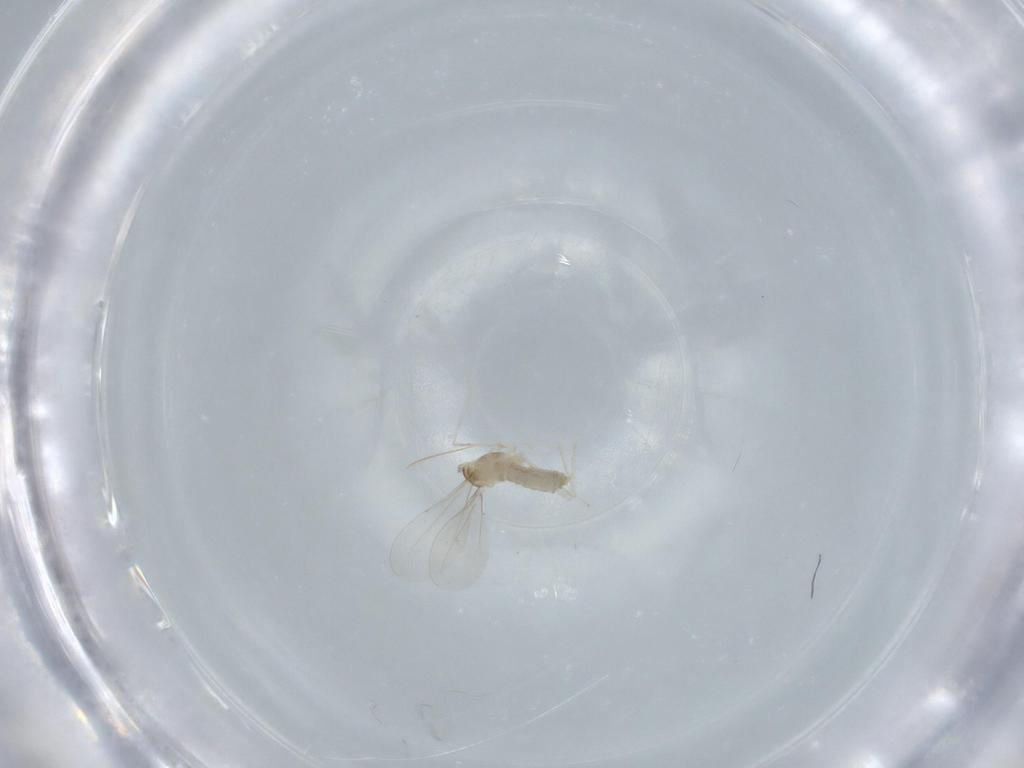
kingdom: Animalia
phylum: Arthropoda
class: Insecta
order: Diptera
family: Cecidomyiidae
